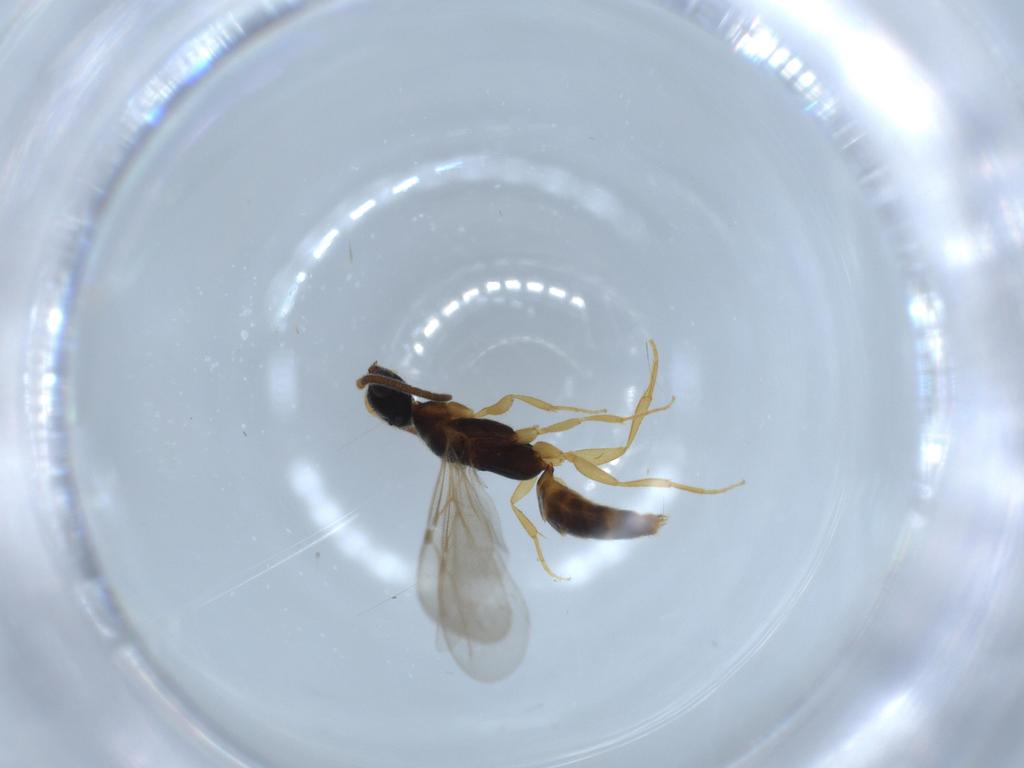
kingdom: Animalia
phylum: Arthropoda
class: Insecta
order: Hymenoptera
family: Bethylidae
